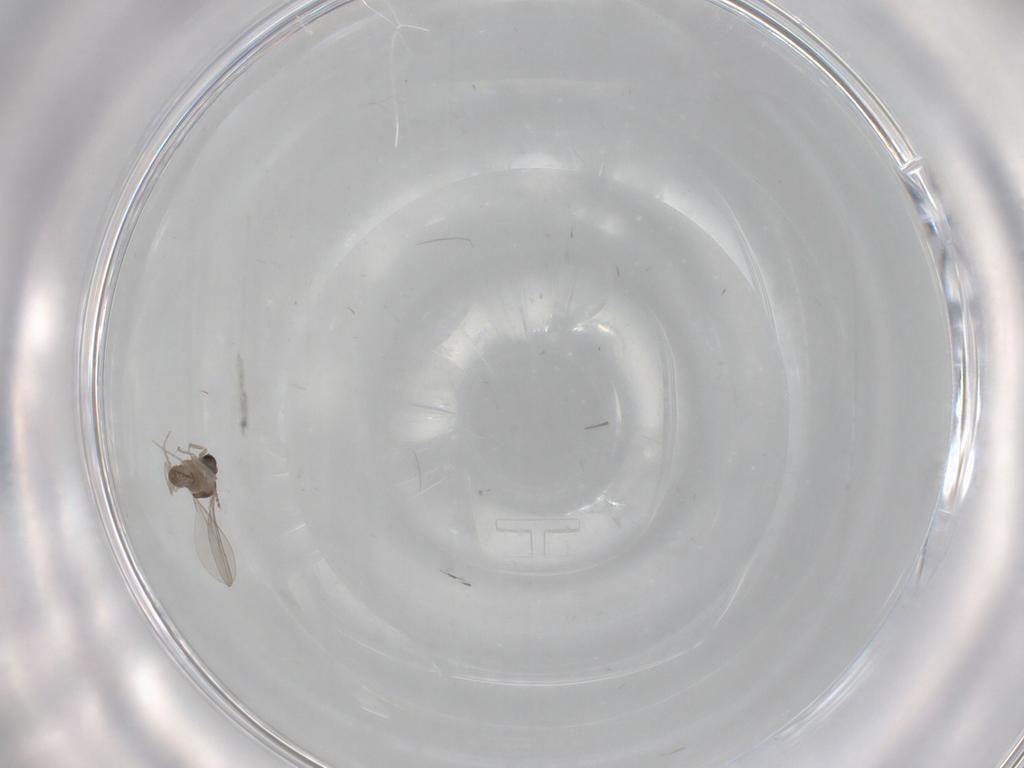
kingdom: Animalia
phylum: Arthropoda
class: Insecta
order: Diptera
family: Cecidomyiidae
